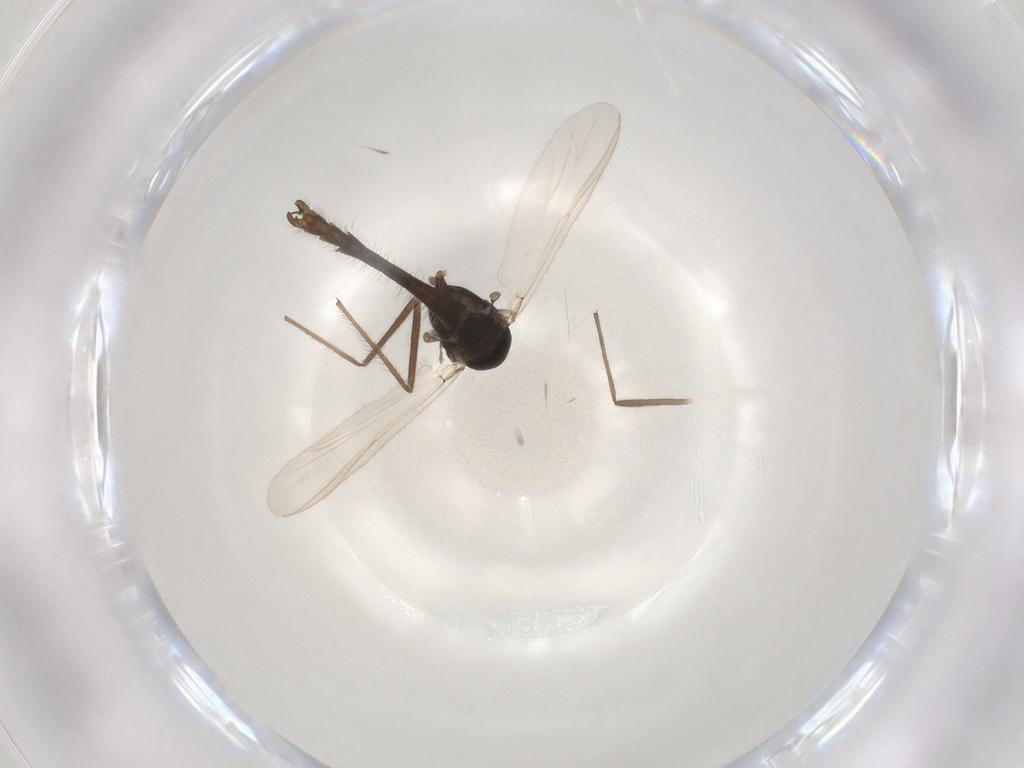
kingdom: Animalia
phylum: Arthropoda
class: Insecta
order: Diptera
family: Chironomidae
